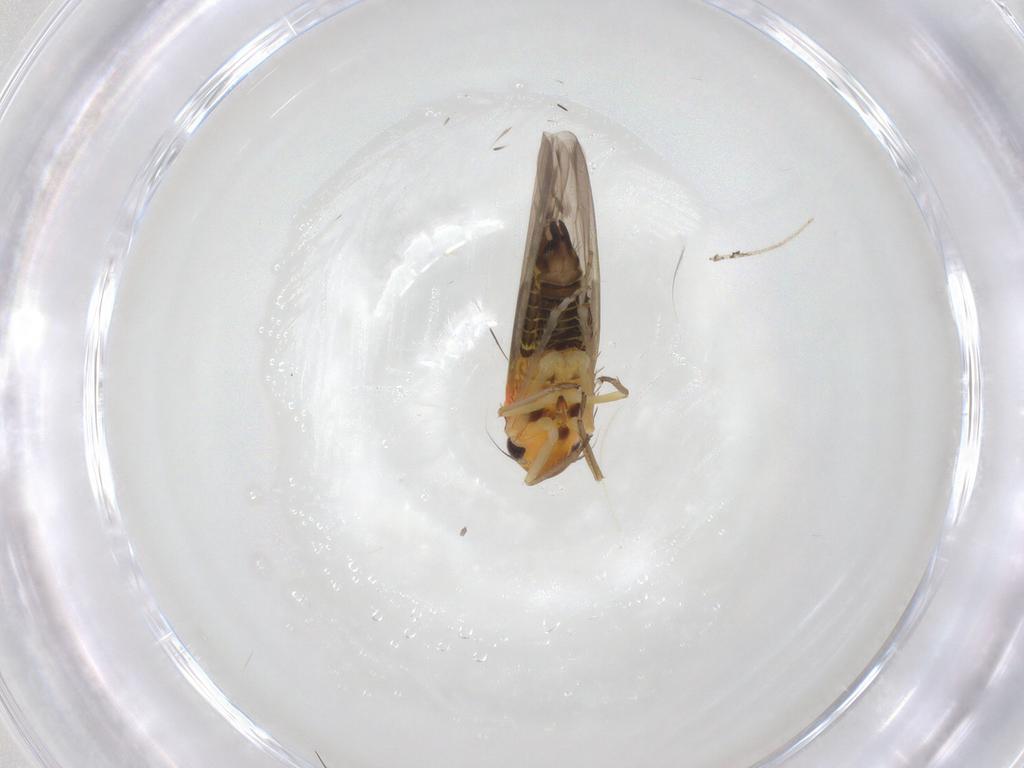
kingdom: Animalia
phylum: Arthropoda
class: Insecta
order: Hemiptera
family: Cicadellidae
